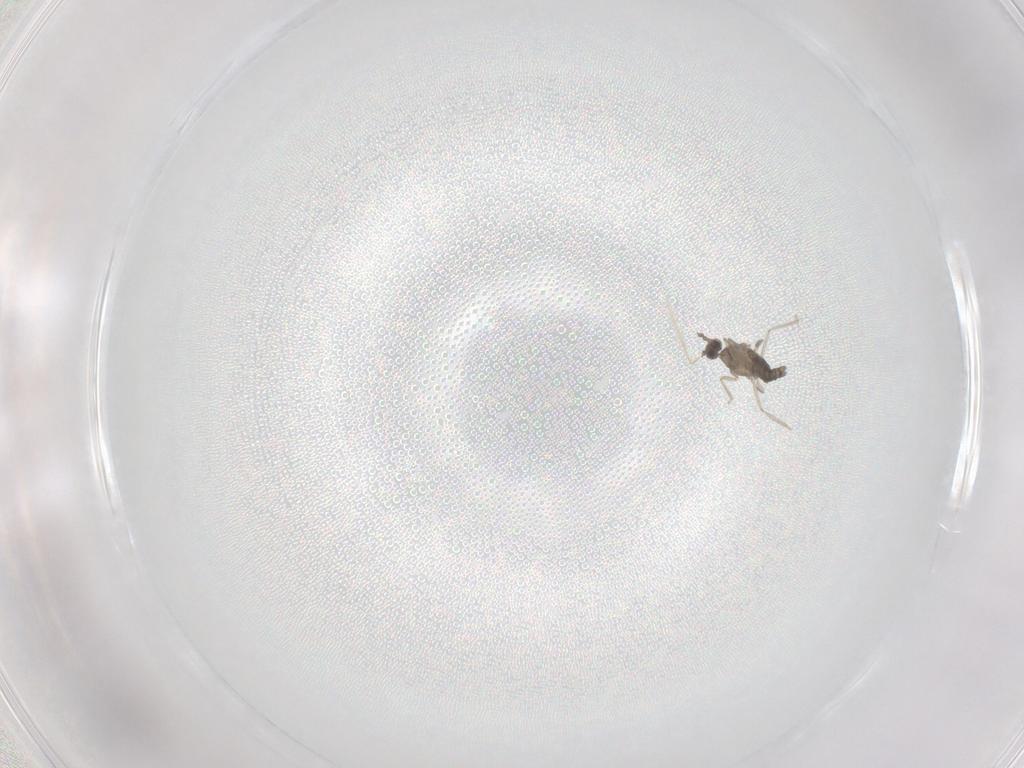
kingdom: Animalia
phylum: Arthropoda
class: Insecta
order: Diptera
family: Cecidomyiidae
